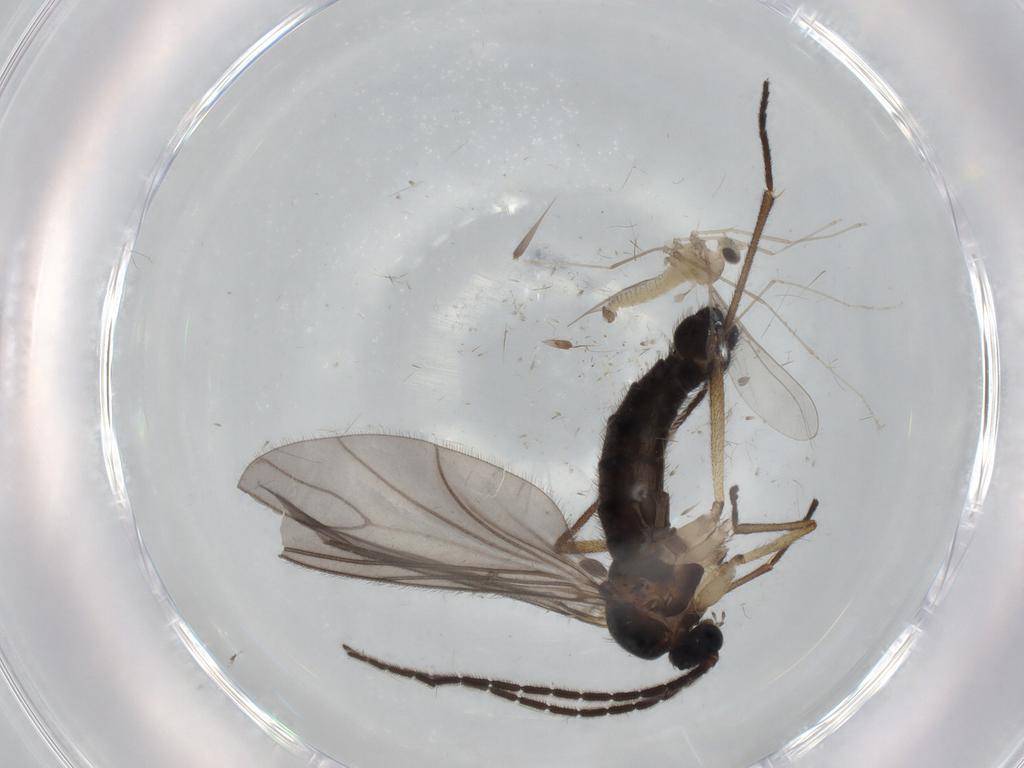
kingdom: Animalia
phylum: Arthropoda
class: Insecta
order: Diptera
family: Sciaridae
